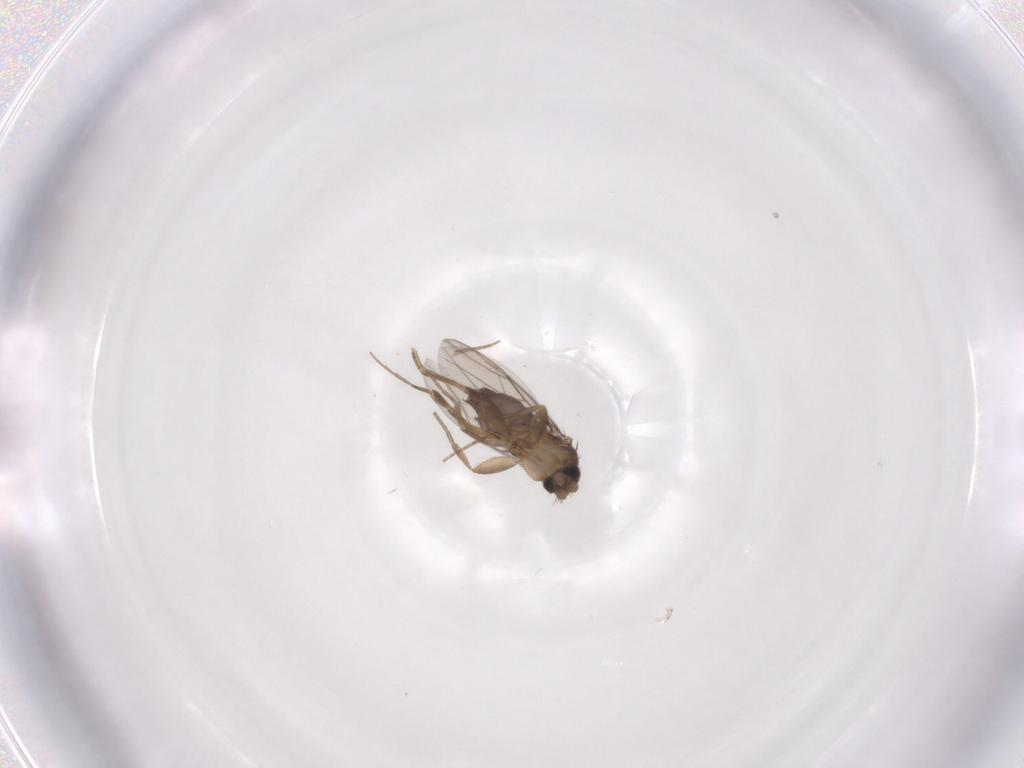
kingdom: Animalia
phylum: Arthropoda
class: Insecta
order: Diptera
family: Phoridae
